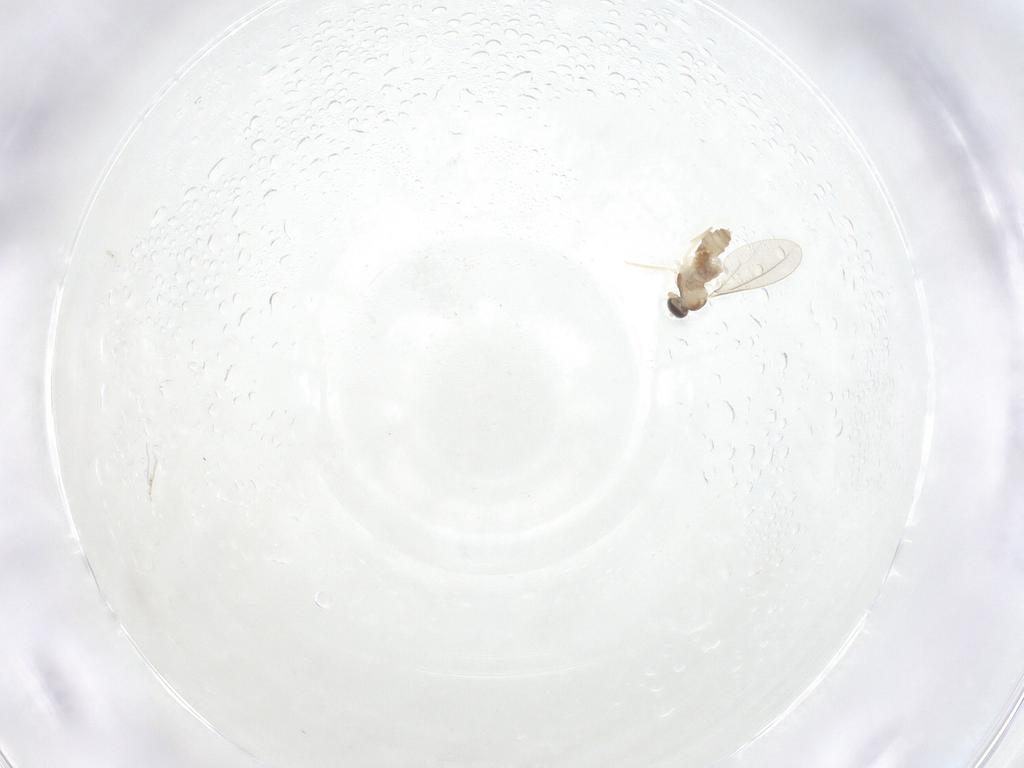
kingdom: Animalia
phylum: Arthropoda
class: Insecta
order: Diptera
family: Cecidomyiidae
